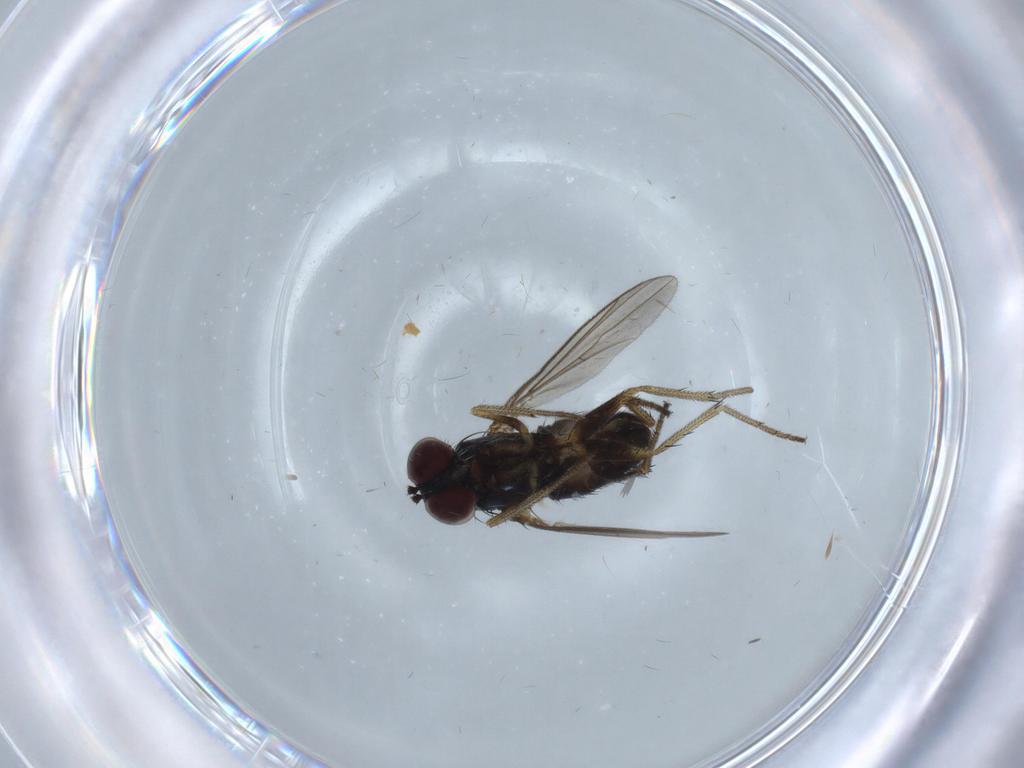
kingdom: Animalia
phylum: Arthropoda
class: Insecta
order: Diptera
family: Dolichopodidae
